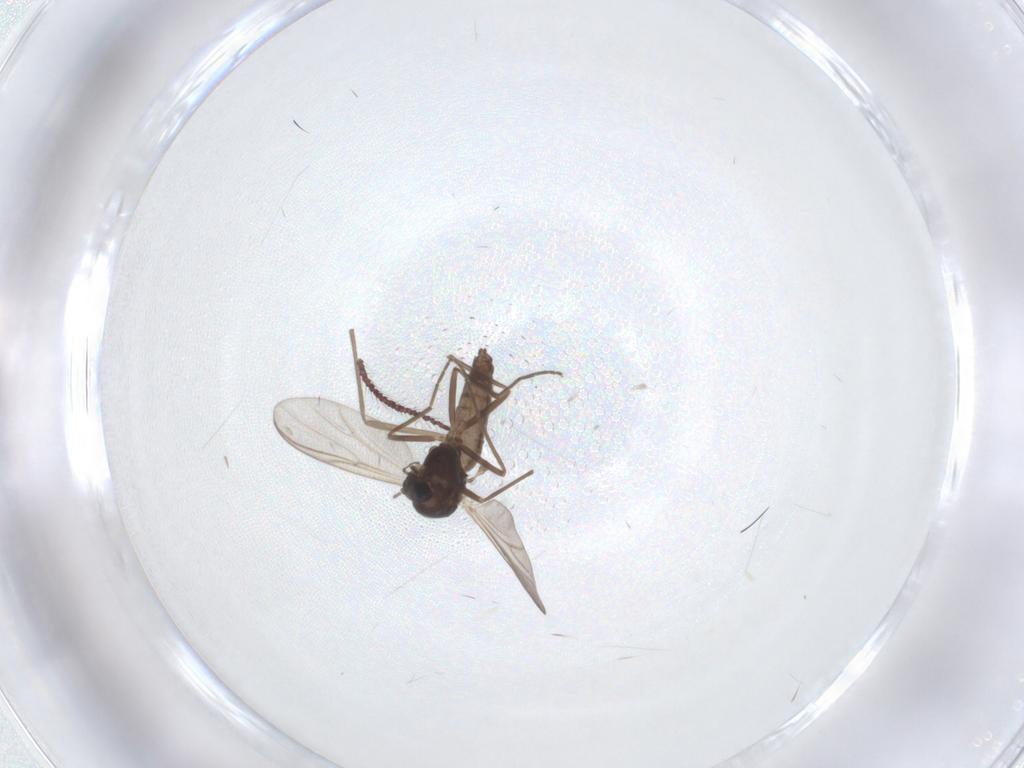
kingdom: Animalia
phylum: Arthropoda
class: Insecta
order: Diptera
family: Chironomidae
